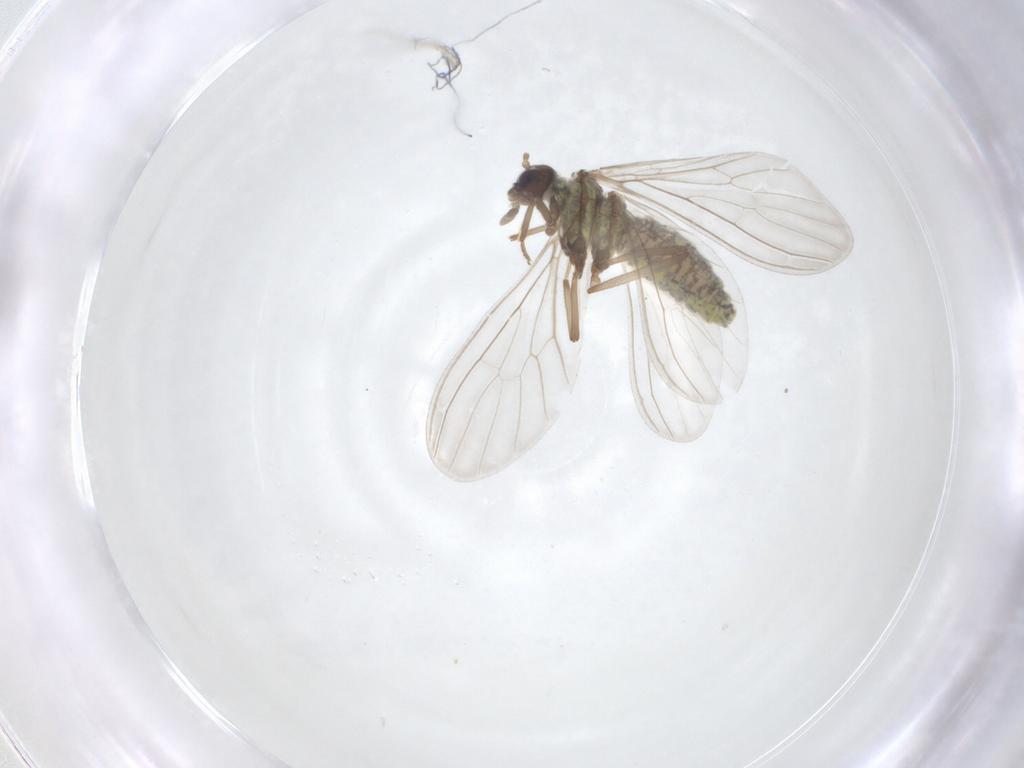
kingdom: Animalia
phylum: Arthropoda
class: Insecta
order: Neuroptera
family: Coniopterygidae
